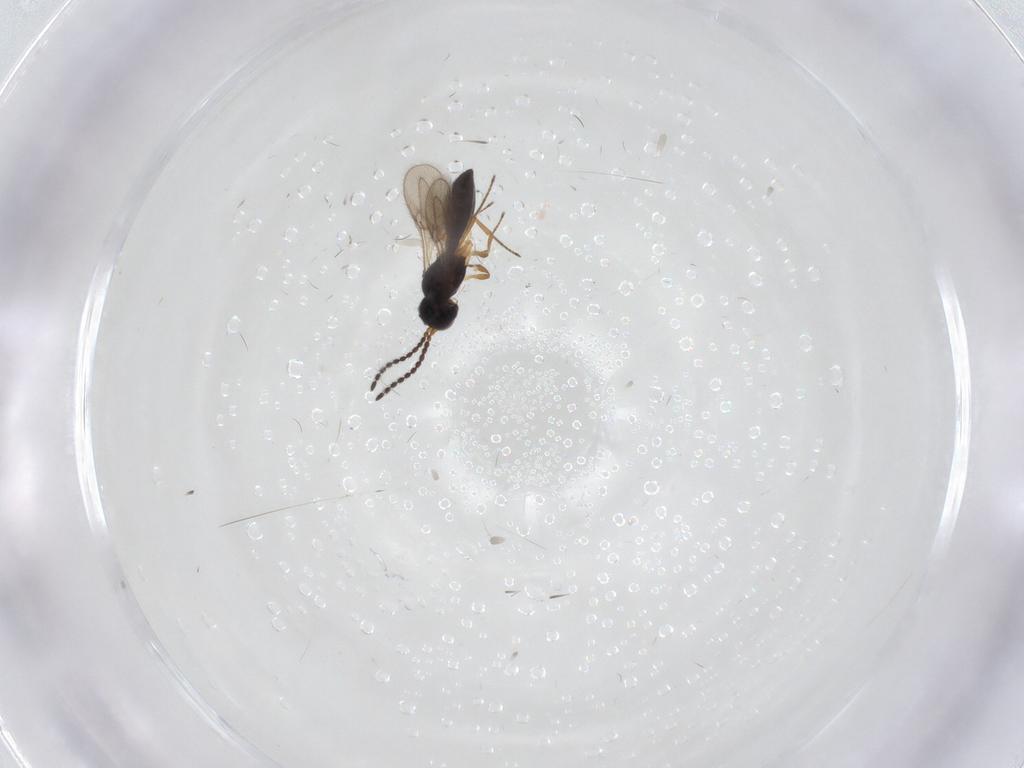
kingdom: Animalia
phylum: Arthropoda
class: Insecta
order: Hymenoptera
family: Scelionidae
